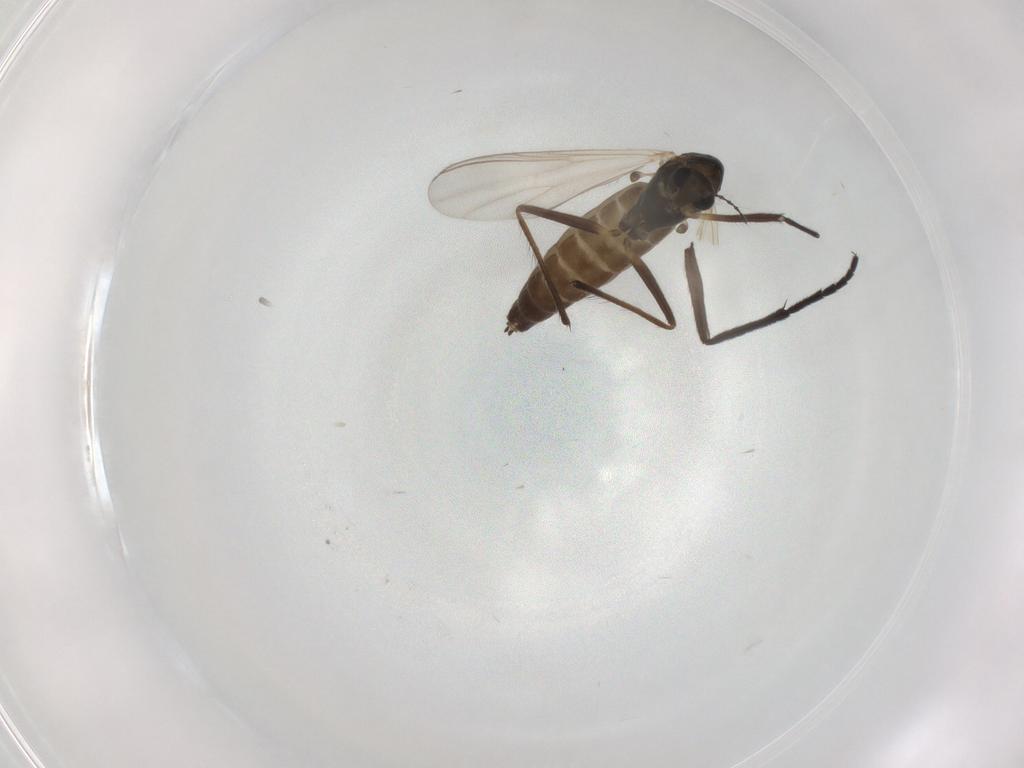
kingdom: Animalia
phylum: Arthropoda
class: Insecta
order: Diptera
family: Chironomidae
